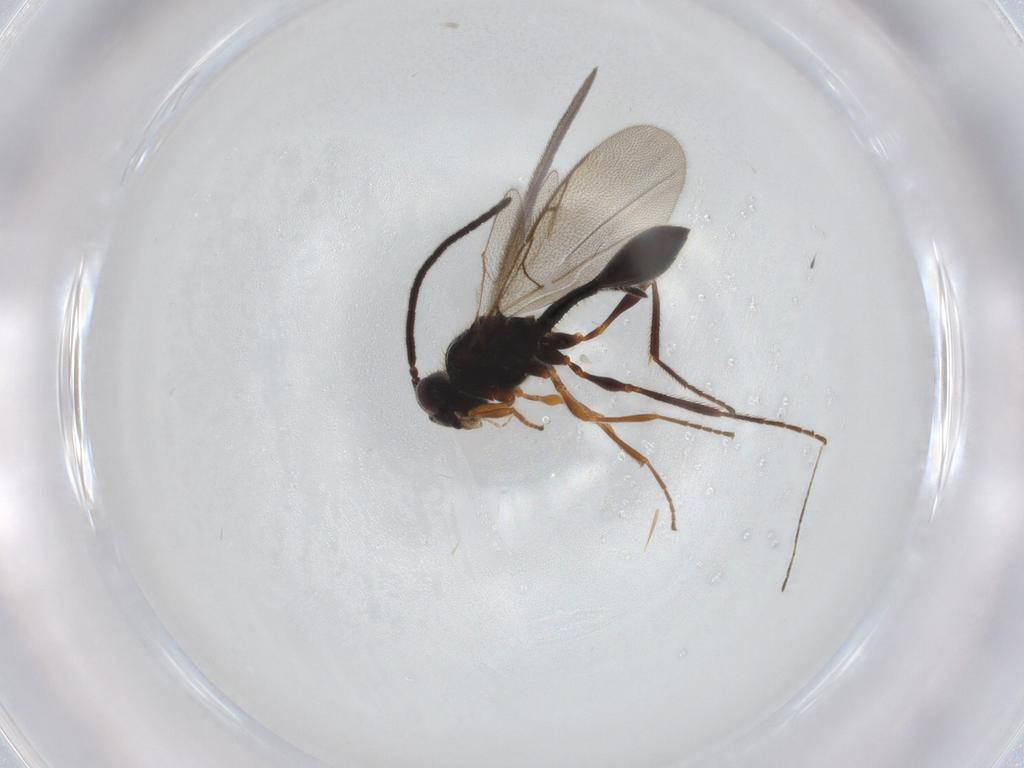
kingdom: Animalia
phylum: Arthropoda
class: Insecta
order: Hymenoptera
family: Diapriidae
